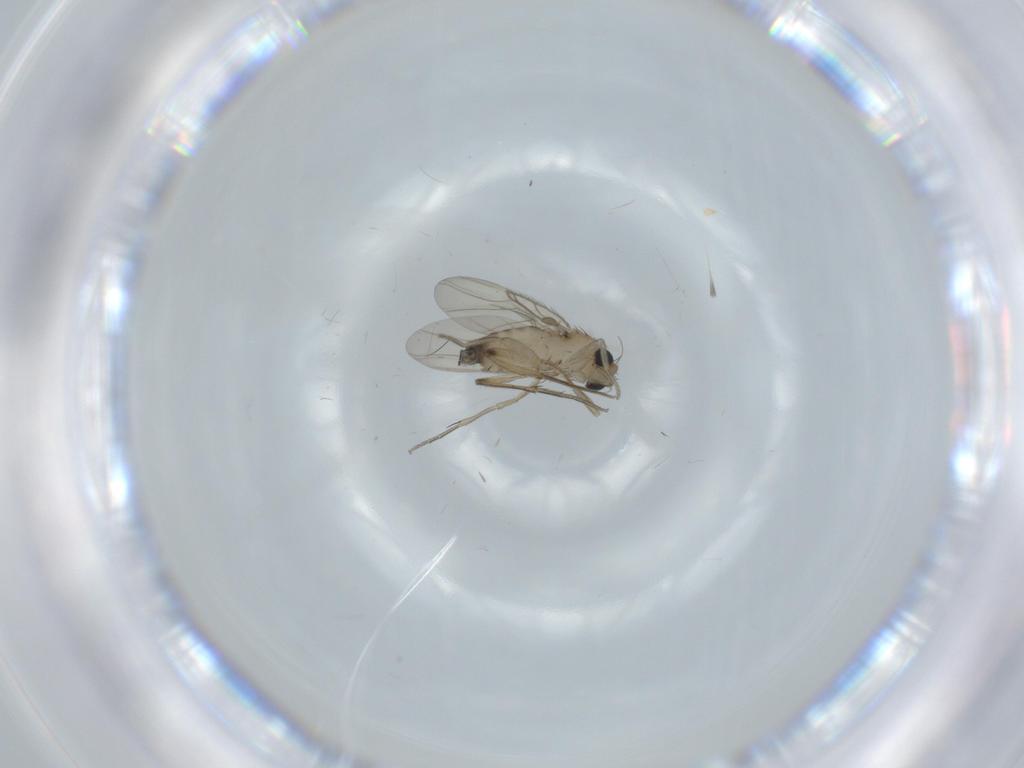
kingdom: Animalia
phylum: Arthropoda
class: Insecta
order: Diptera
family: Phoridae
